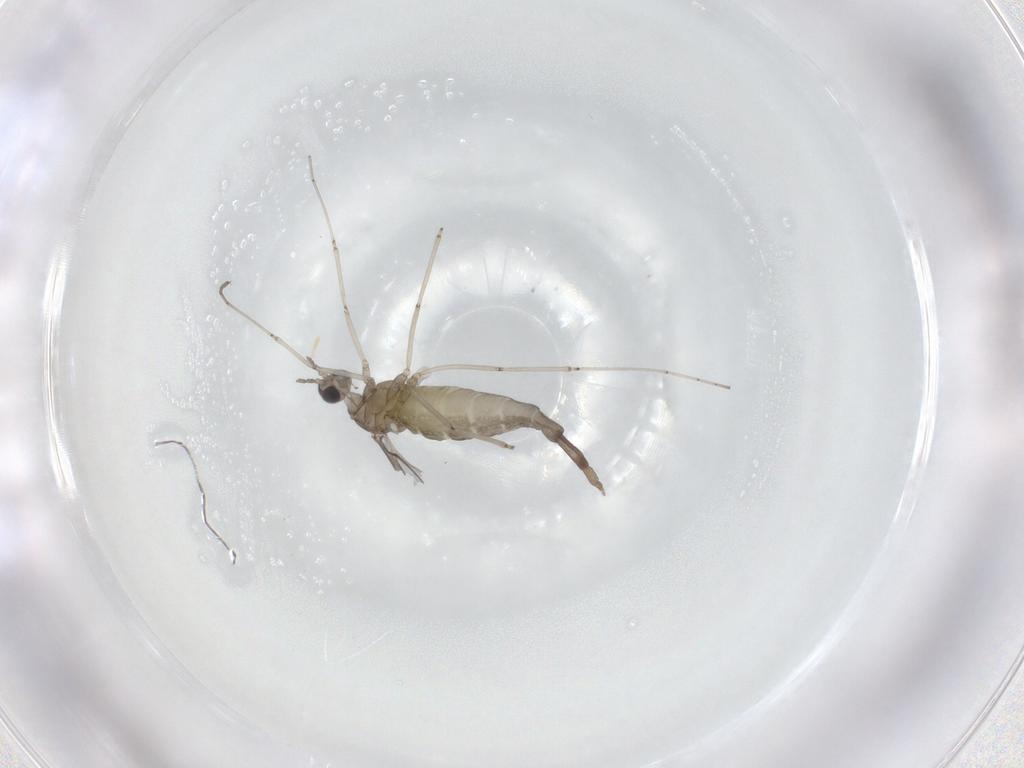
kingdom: Animalia
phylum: Arthropoda
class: Insecta
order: Diptera
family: Cecidomyiidae
